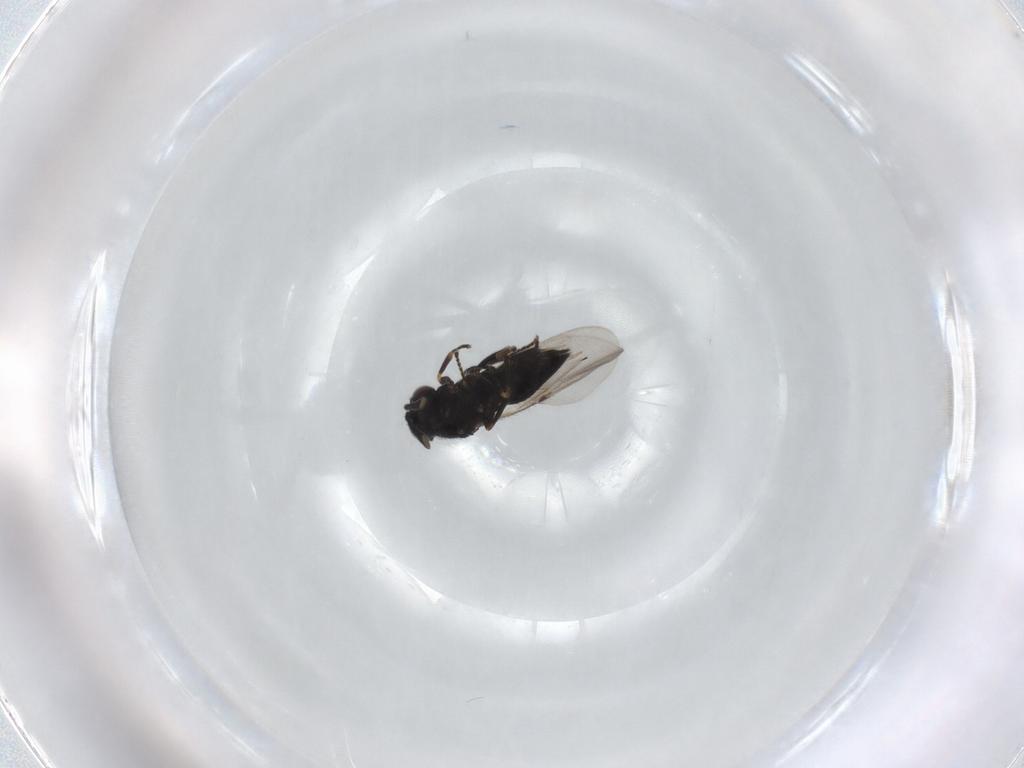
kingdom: Animalia
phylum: Arthropoda
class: Insecta
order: Hymenoptera
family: Encyrtidae
